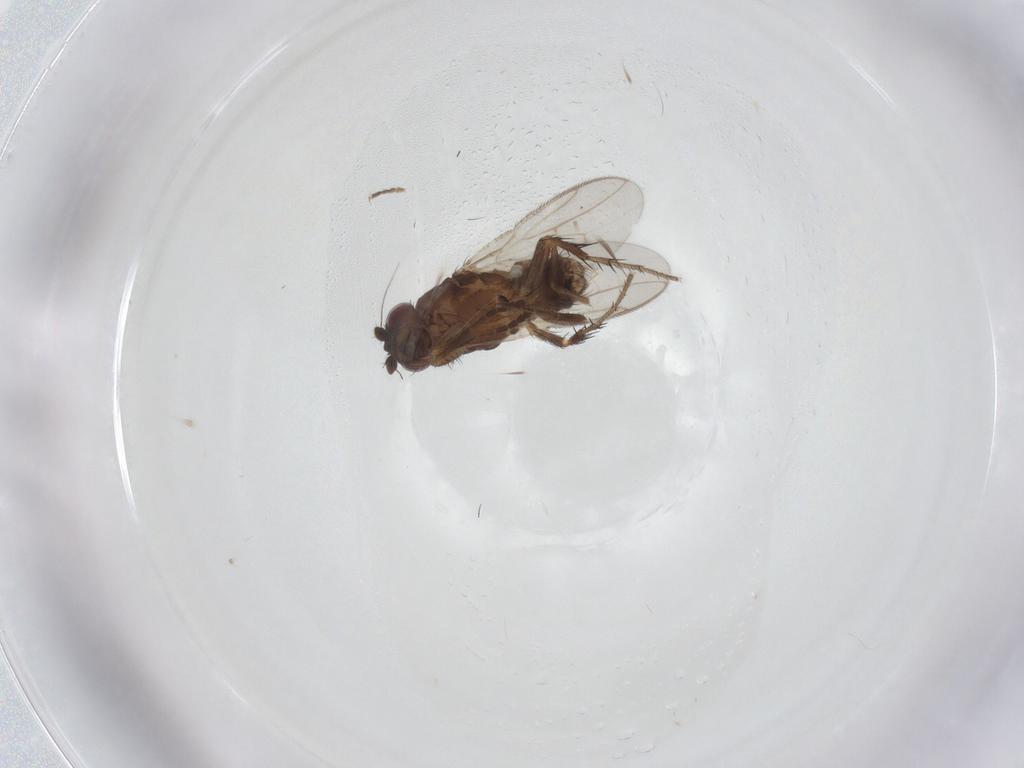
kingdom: Animalia
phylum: Arthropoda
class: Insecta
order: Diptera
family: Sphaeroceridae
